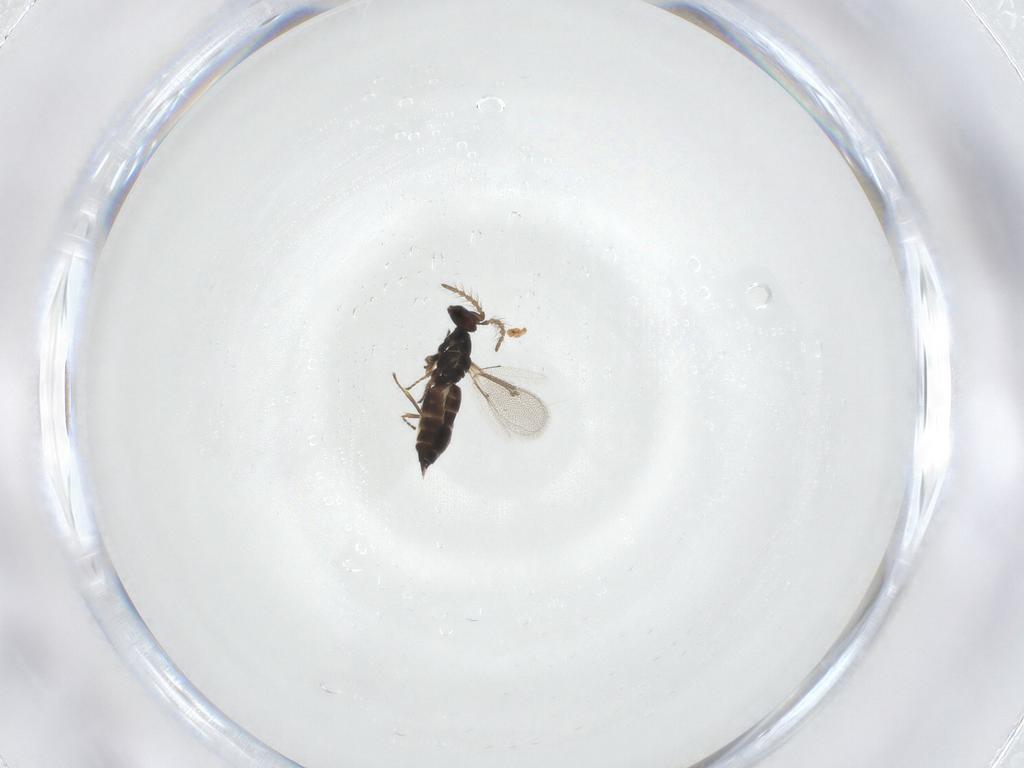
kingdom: Animalia
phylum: Arthropoda
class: Insecta
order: Hymenoptera
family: Eulophidae
